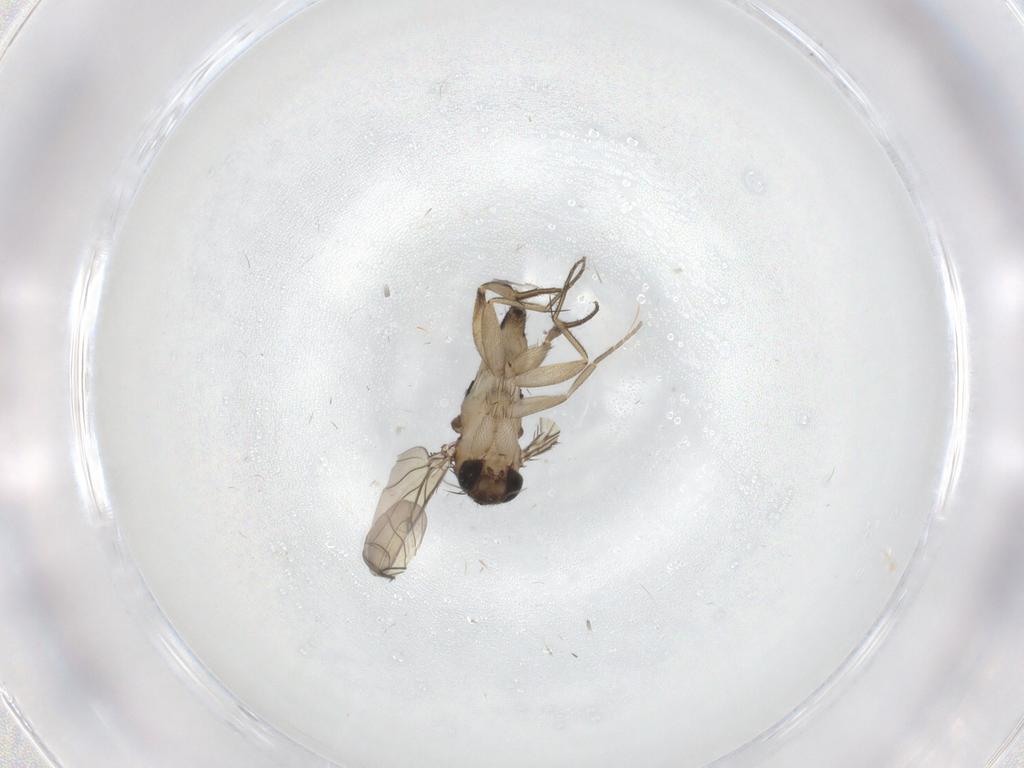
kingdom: Animalia
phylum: Arthropoda
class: Insecta
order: Diptera
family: Phoridae
